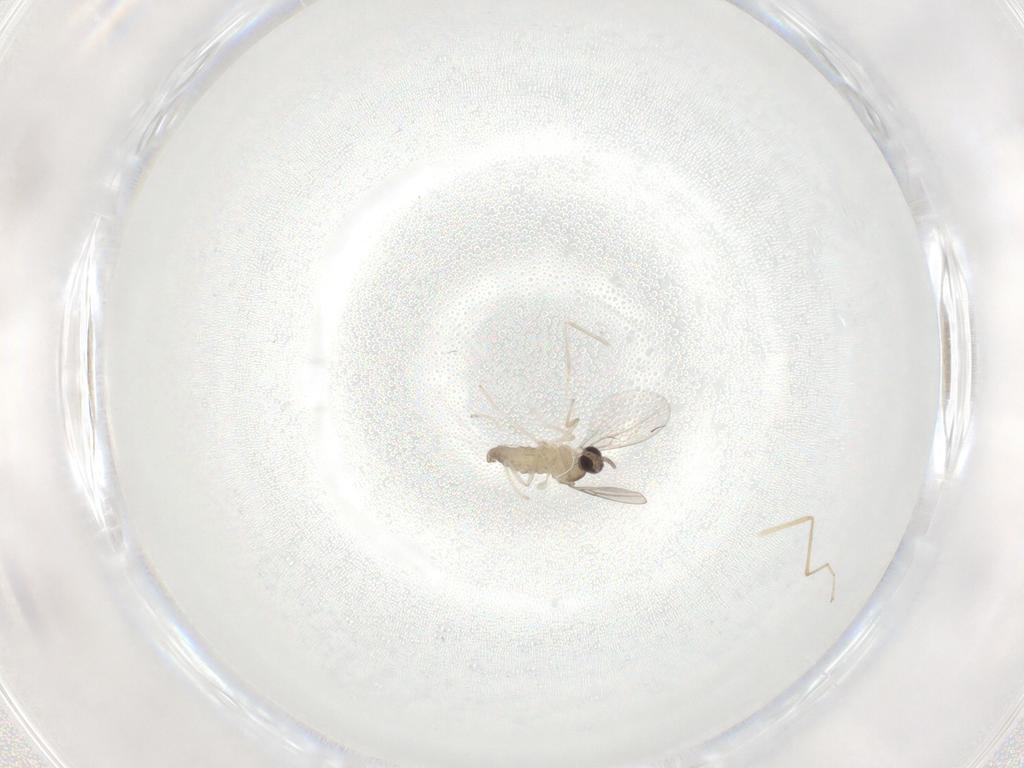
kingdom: Animalia
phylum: Arthropoda
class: Insecta
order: Diptera
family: Cecidomyiidae
